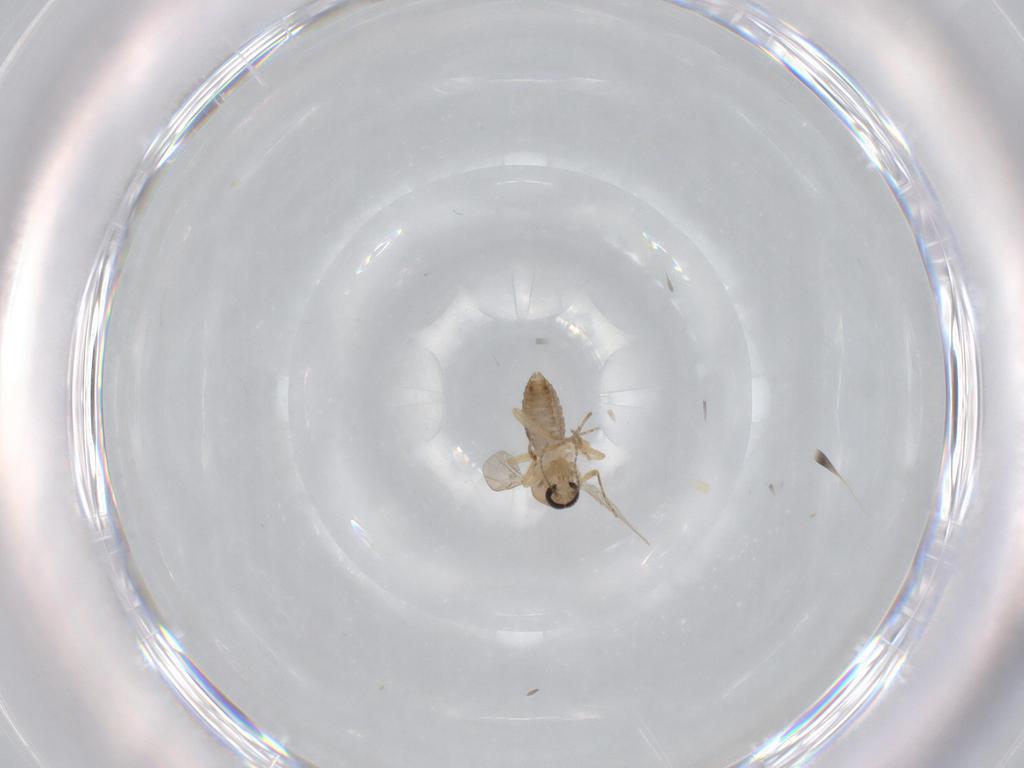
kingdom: Animalia
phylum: Arthropoda
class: Insecta
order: Diptera
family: Ceratopogonidae
